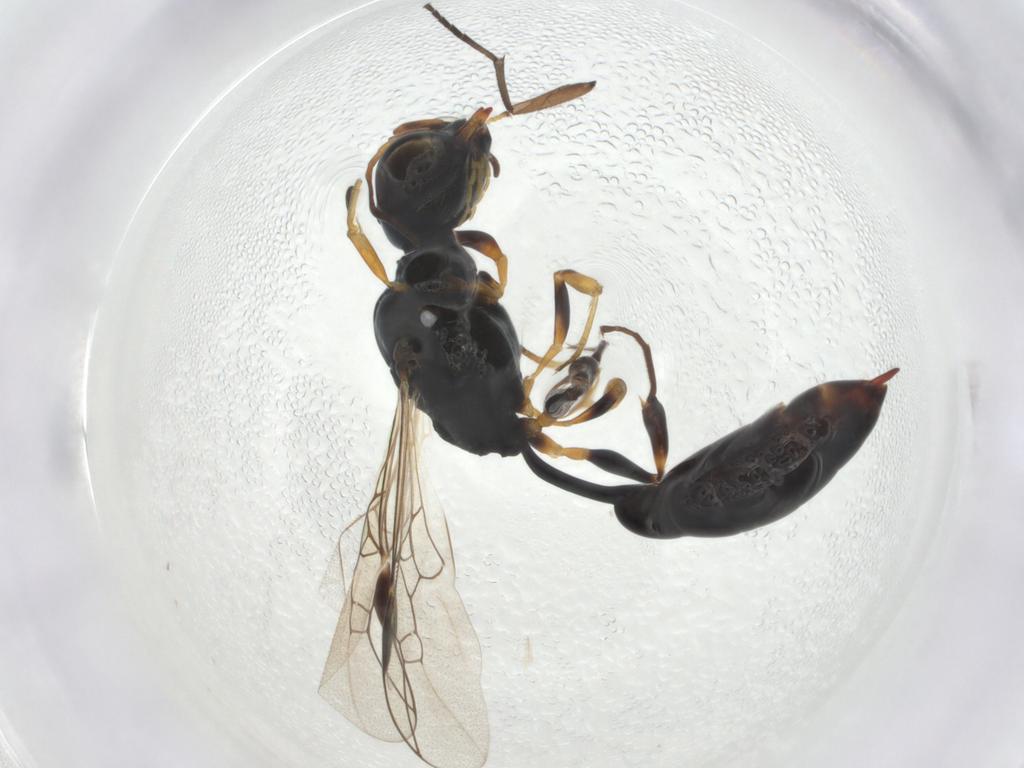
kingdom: Animalia
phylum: Arthropoda
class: Insecta
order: Hymenoptera
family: Crabronidae
